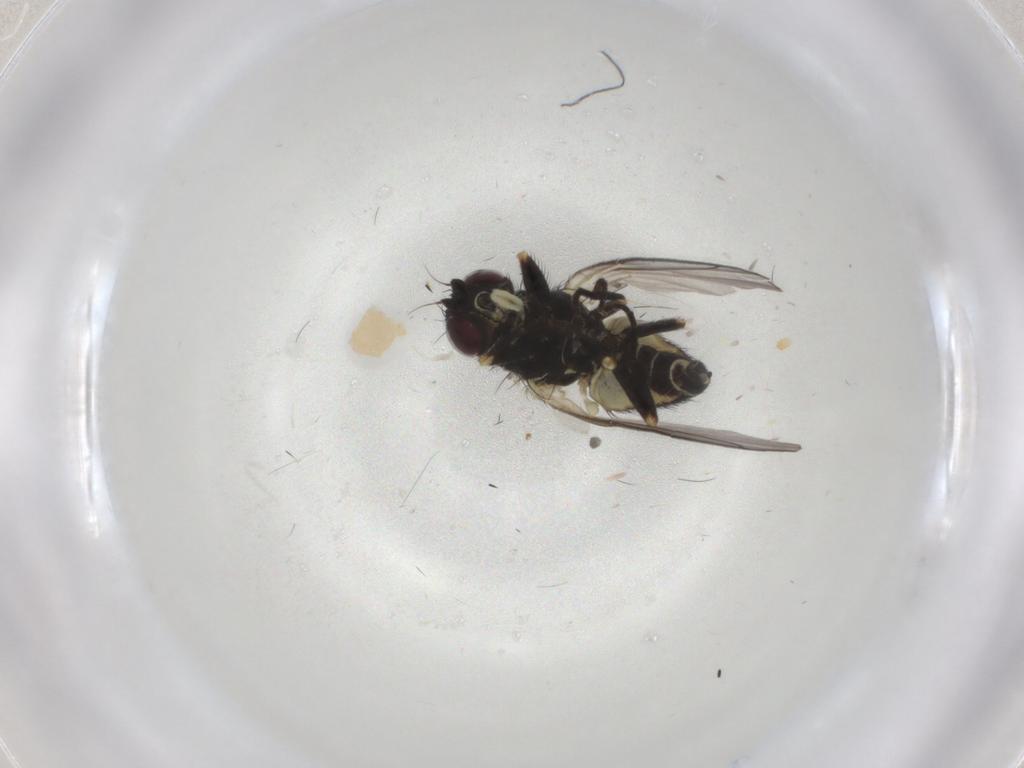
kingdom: Animalia
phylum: Arthropoda
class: Insecta
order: Diptera
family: Agromyzidae
